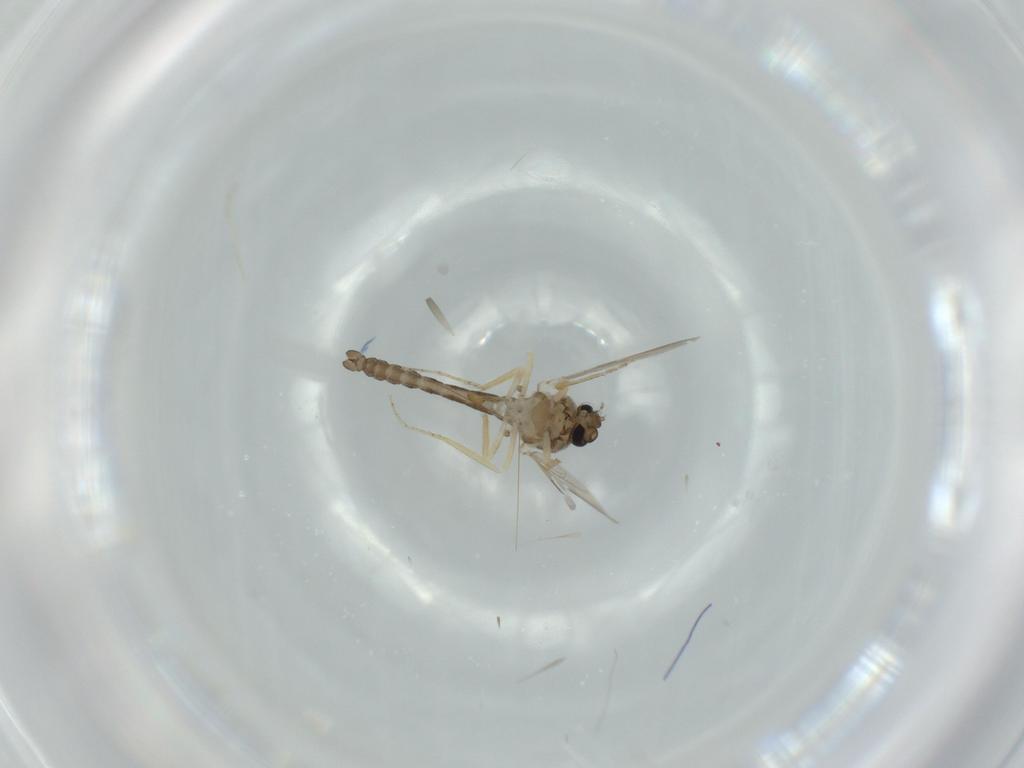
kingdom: Animalia
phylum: Arthropoda
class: Insecta
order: Diptera
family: Ceratopogonidae
